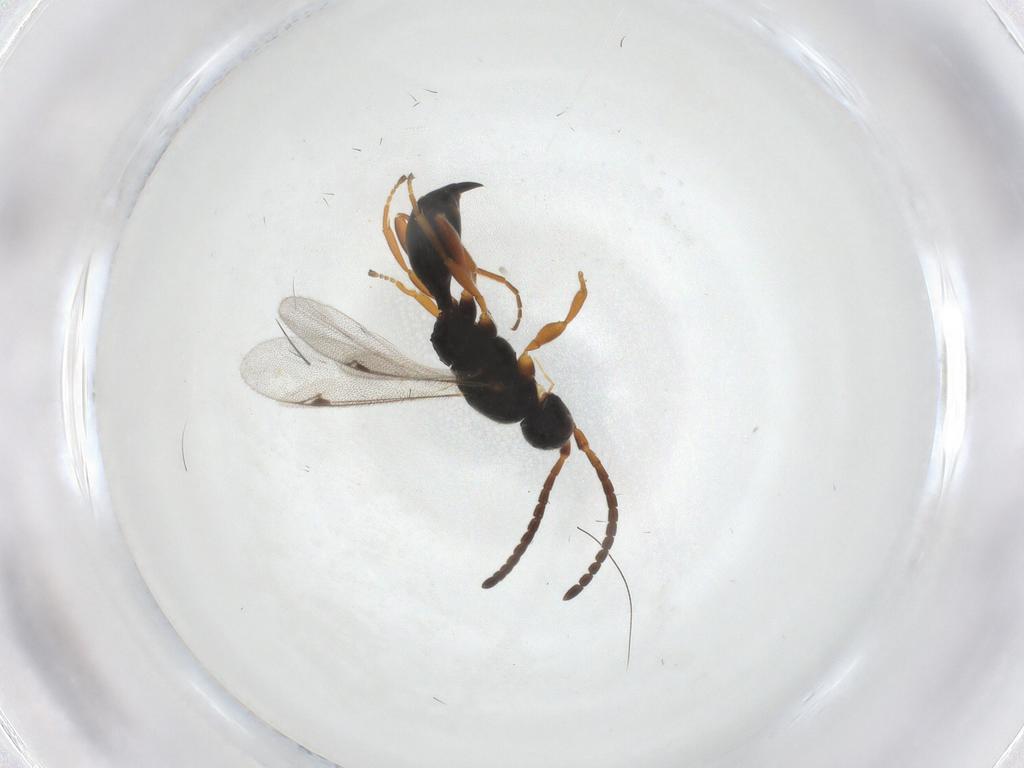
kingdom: Animalia
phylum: Arthropoda
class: Insecta
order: Hymenoptera
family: Proctotrupidae
